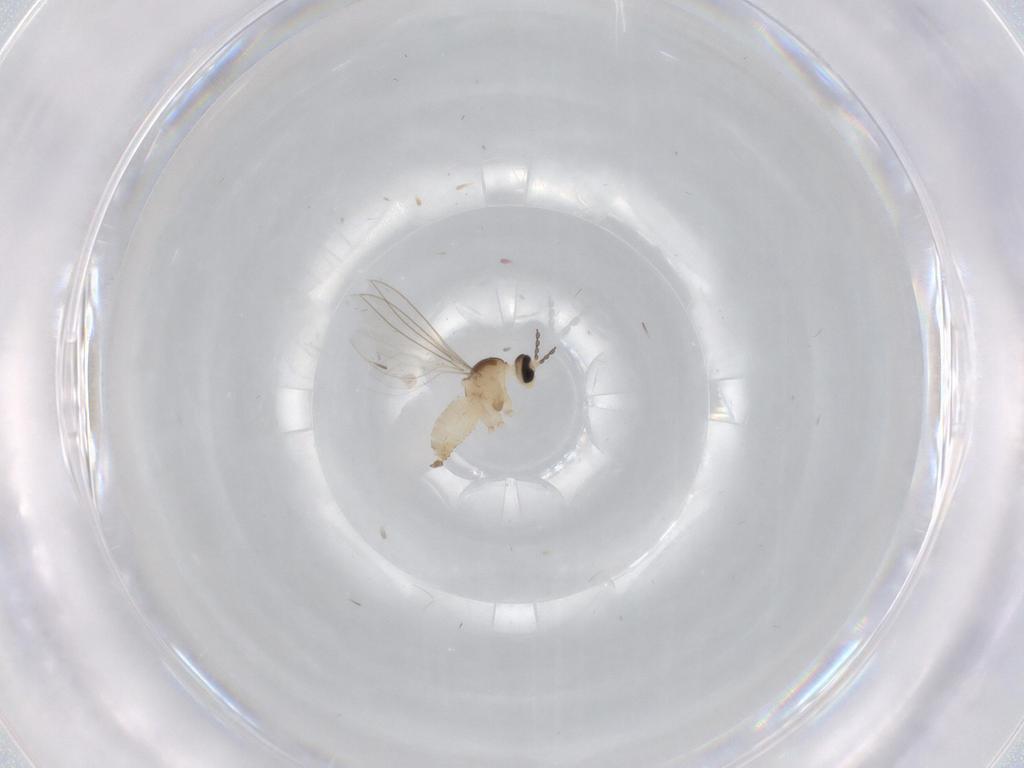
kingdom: Animalia
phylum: Arthropoda
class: Insecta
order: Diptera
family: Cecidomyiidae
